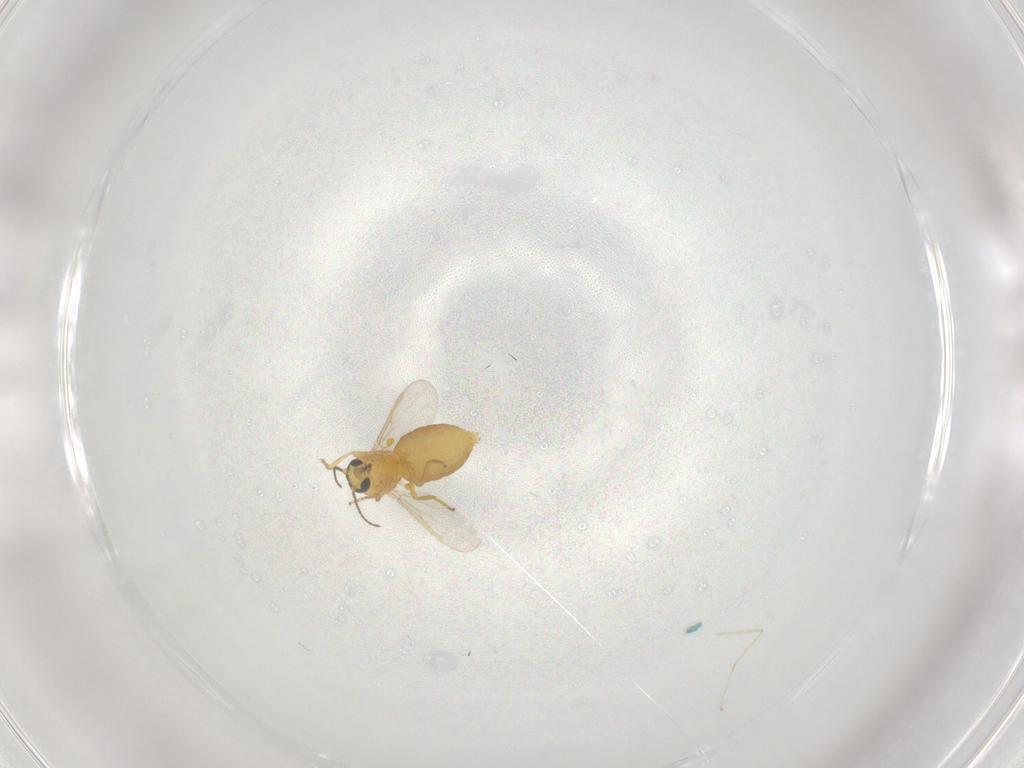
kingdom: Animalia
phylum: Arthropoda
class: Insecta
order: Diptera
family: Ceratopogonidae
